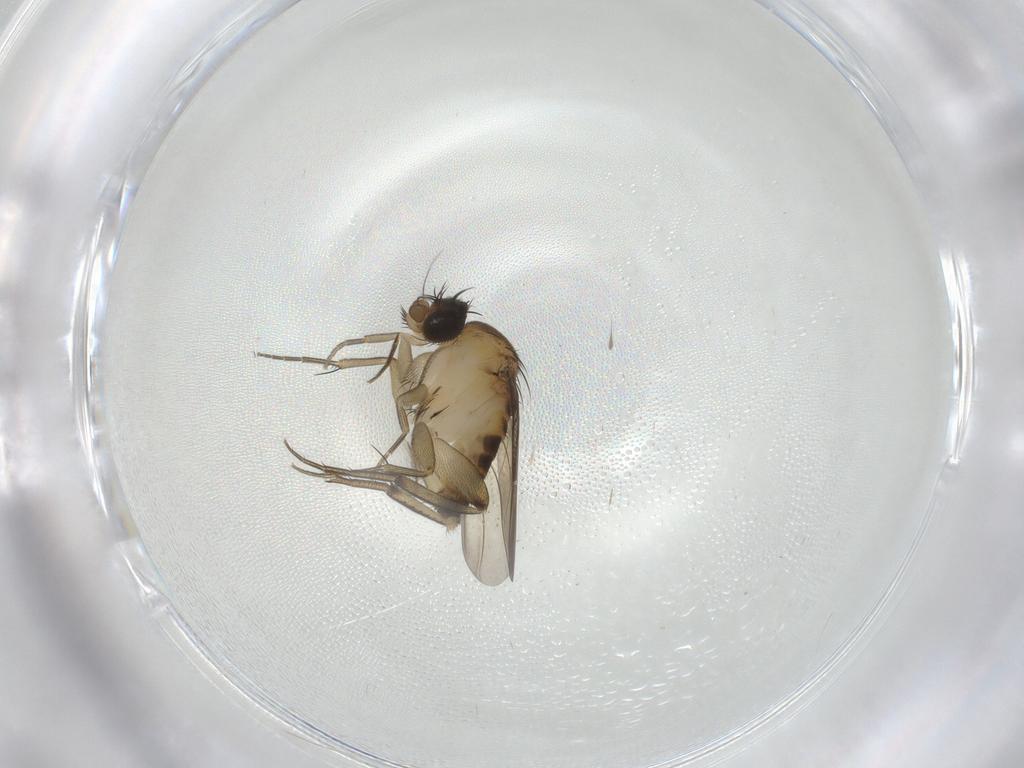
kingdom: Animalia
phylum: Arthropoda
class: Insecta
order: Diptera
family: Phoridae
